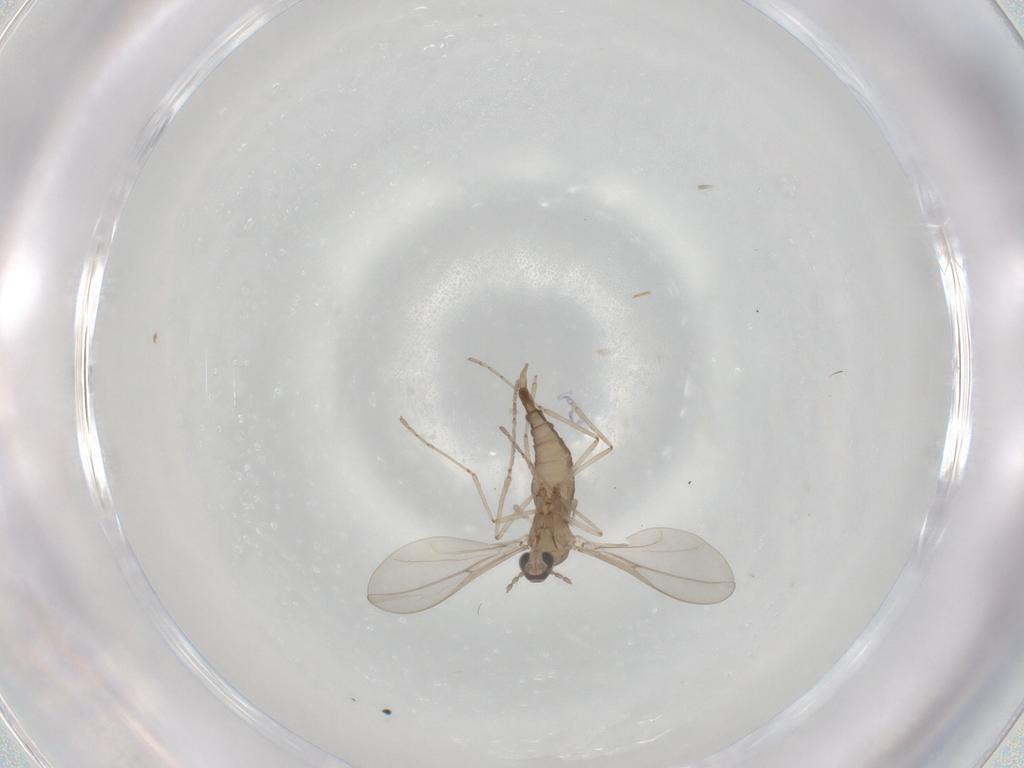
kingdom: Animalia
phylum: Arthropoda
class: Insecta
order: Diptera
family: Cecidomyiidae
